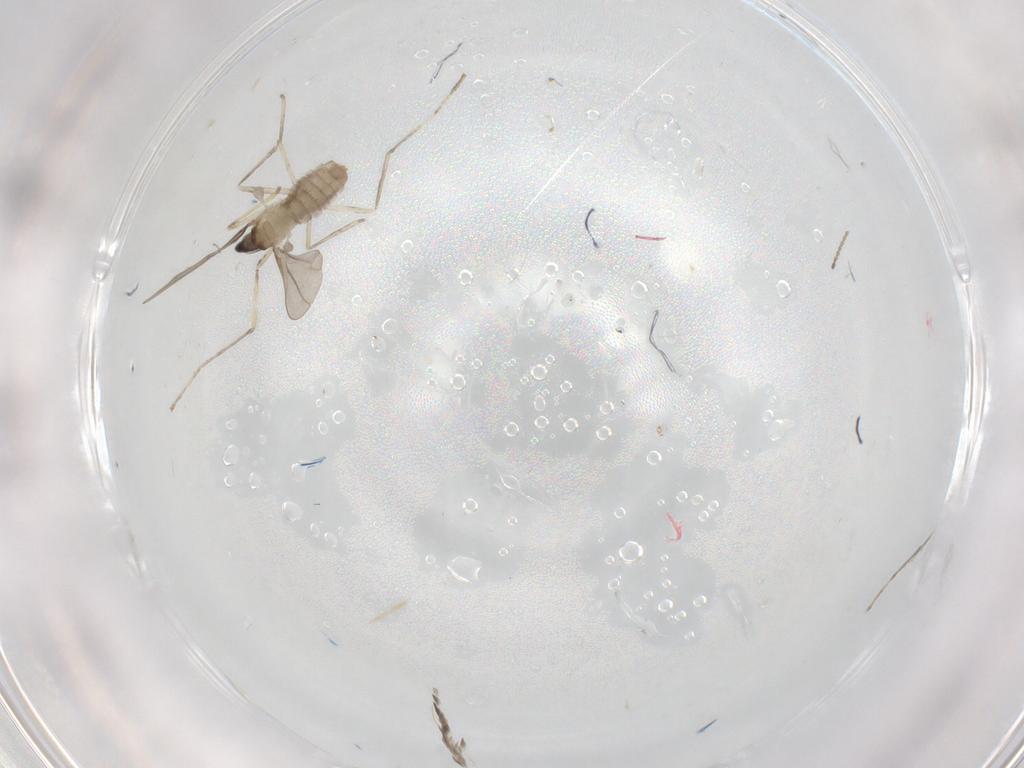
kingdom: Animalia
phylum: Arthropoda
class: Insecta
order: Diptera
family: Cecidomyiidae
